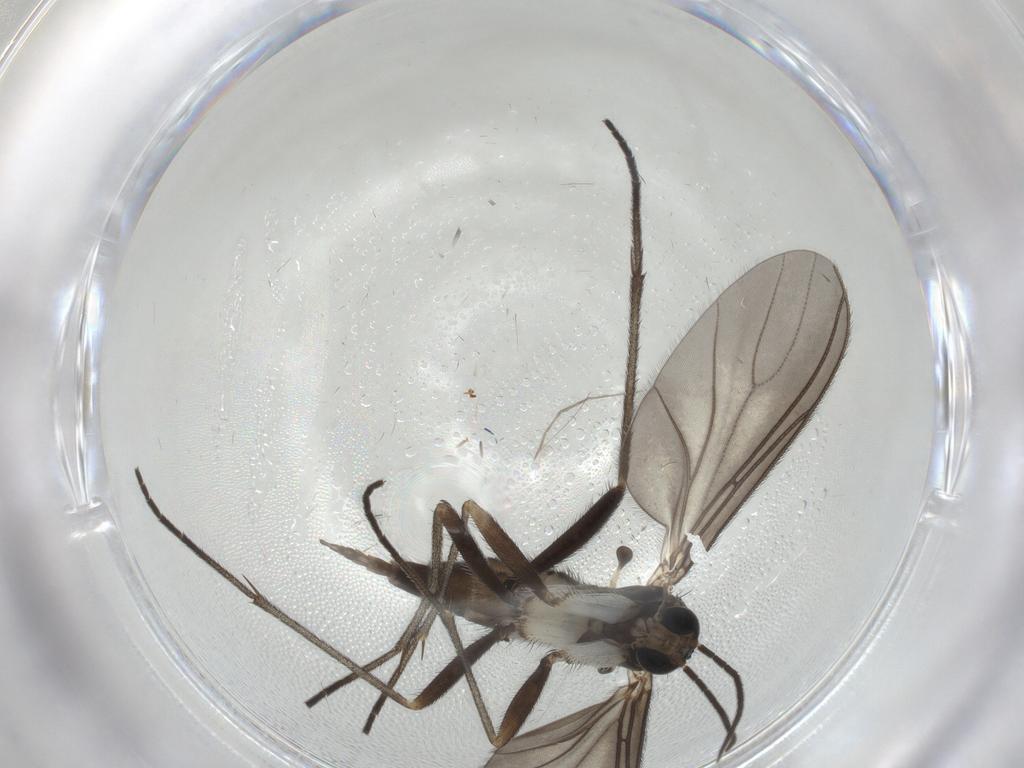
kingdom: Animalia
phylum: Arthropoda
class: Insecta
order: Diptera
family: Sciaridae
